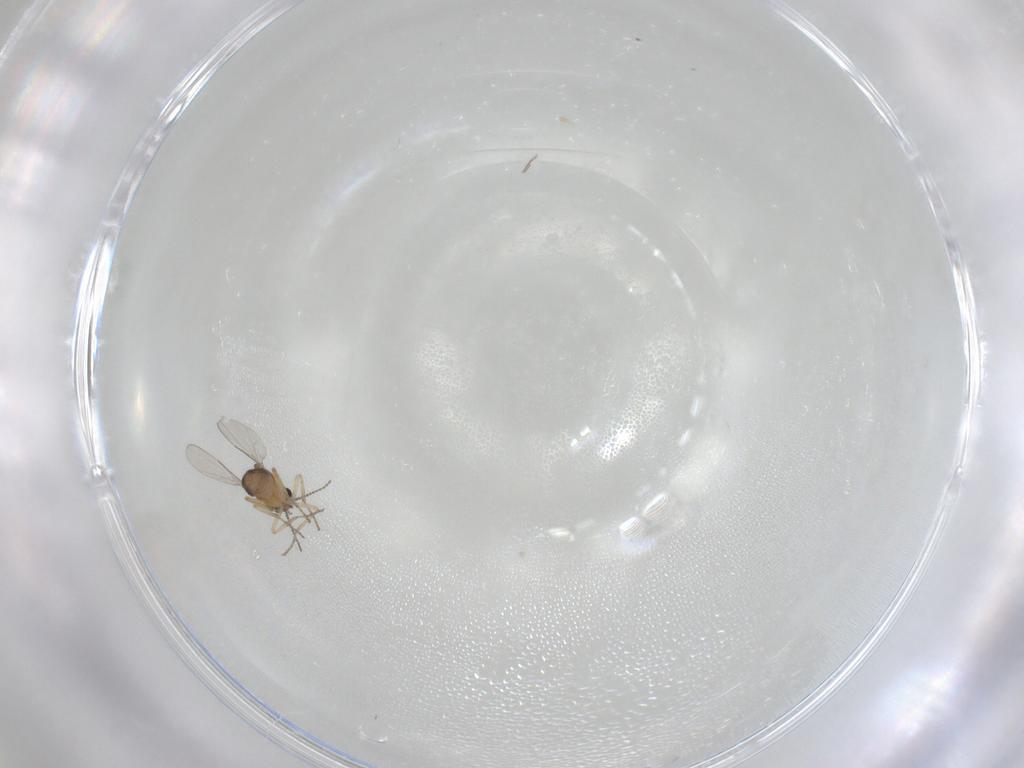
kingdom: Animalia
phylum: Arthropoda
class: Insecta
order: Diptera
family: Ceratopogonidae
